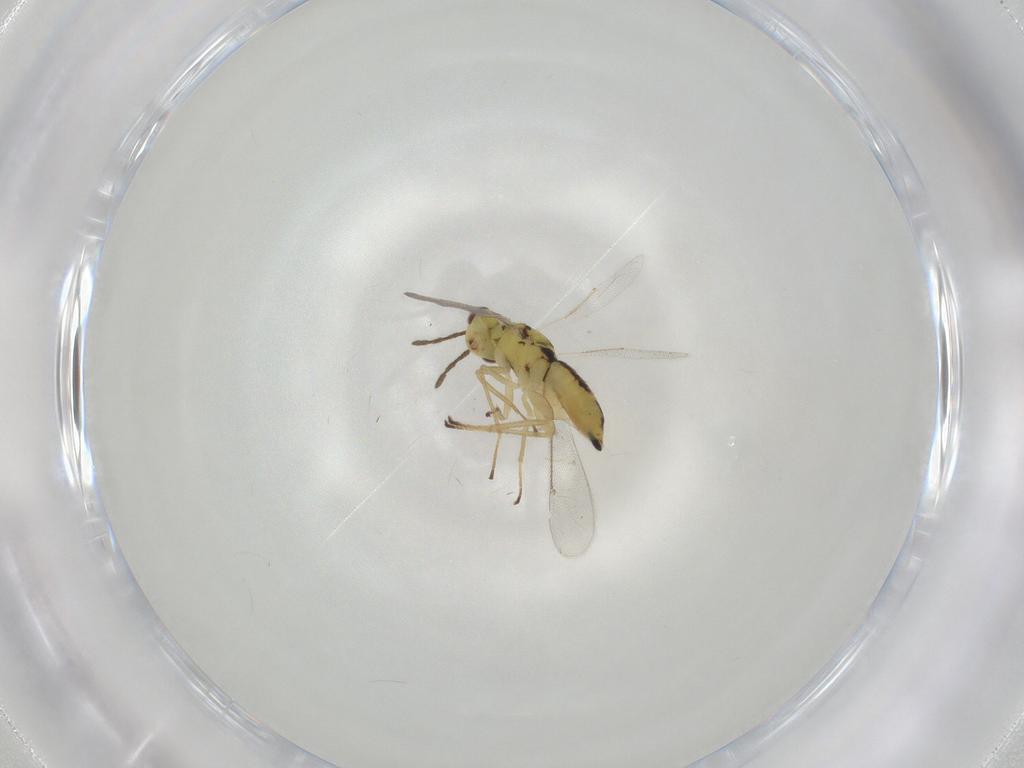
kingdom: Animalia
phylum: Arthropoda
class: Insecta
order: Hymenoptera
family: Eulophidae
